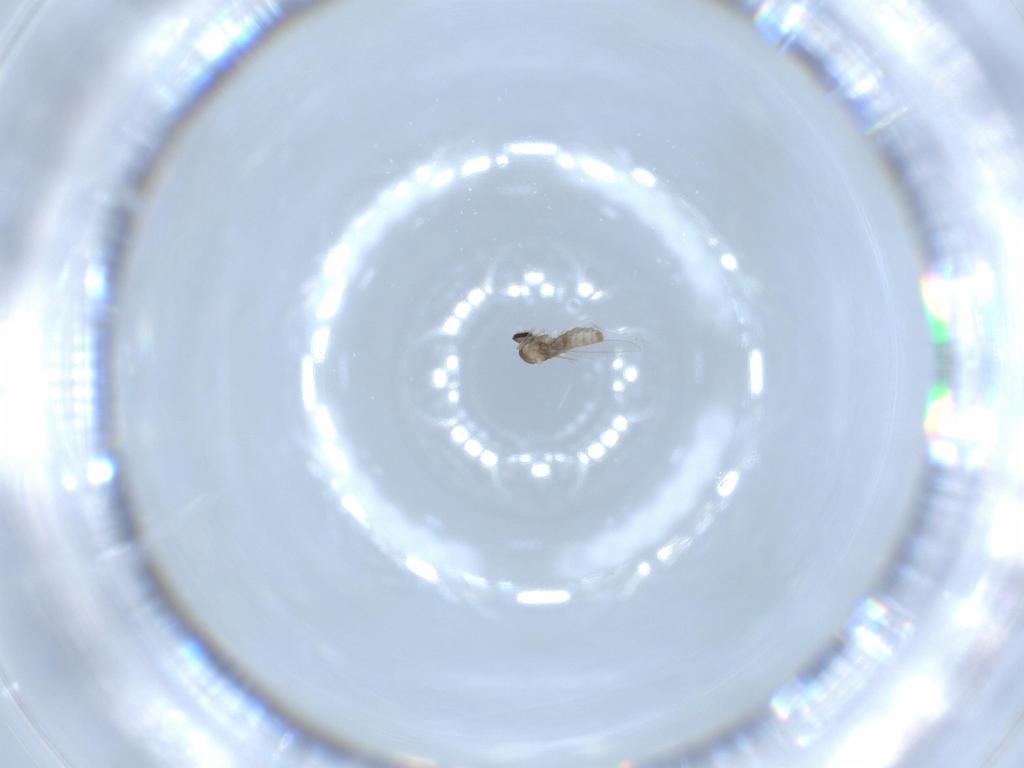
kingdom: Animalia
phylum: Arthropoda
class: Insecta
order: Diptera
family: Cecidomyiidae
